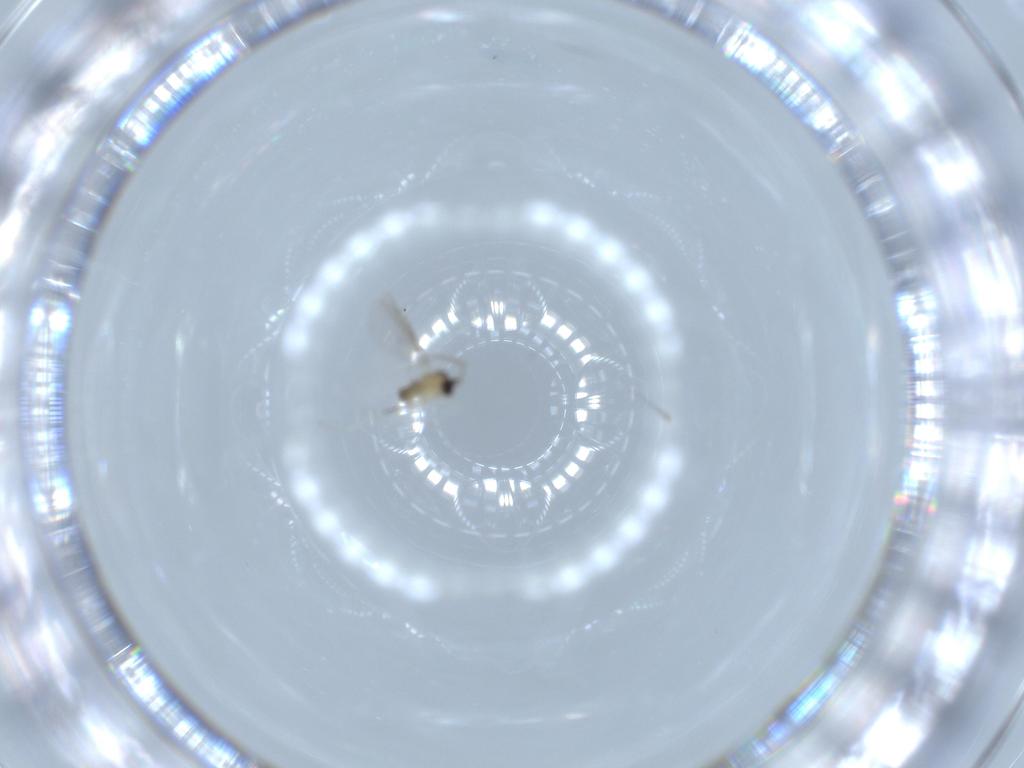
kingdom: Animalia
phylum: Arthropoda
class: Insecta
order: Diptera
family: Cecidomyiidae
